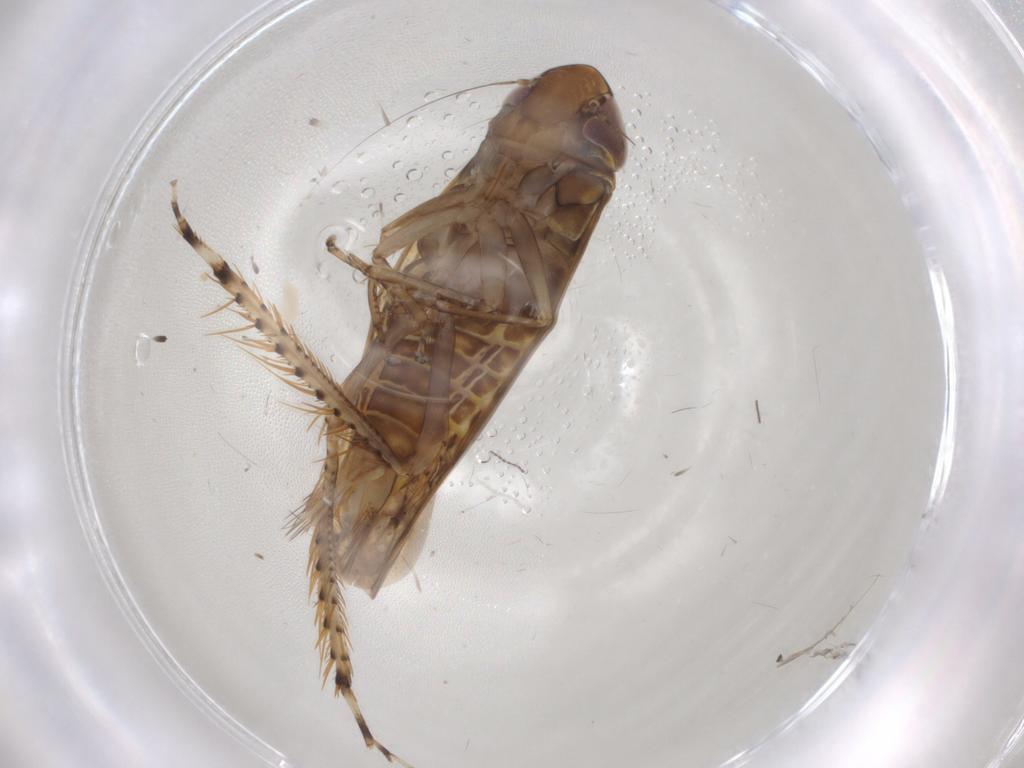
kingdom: Animalia
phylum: Arthropoda
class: Insecta
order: Hemiptera
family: Cicadellidae
